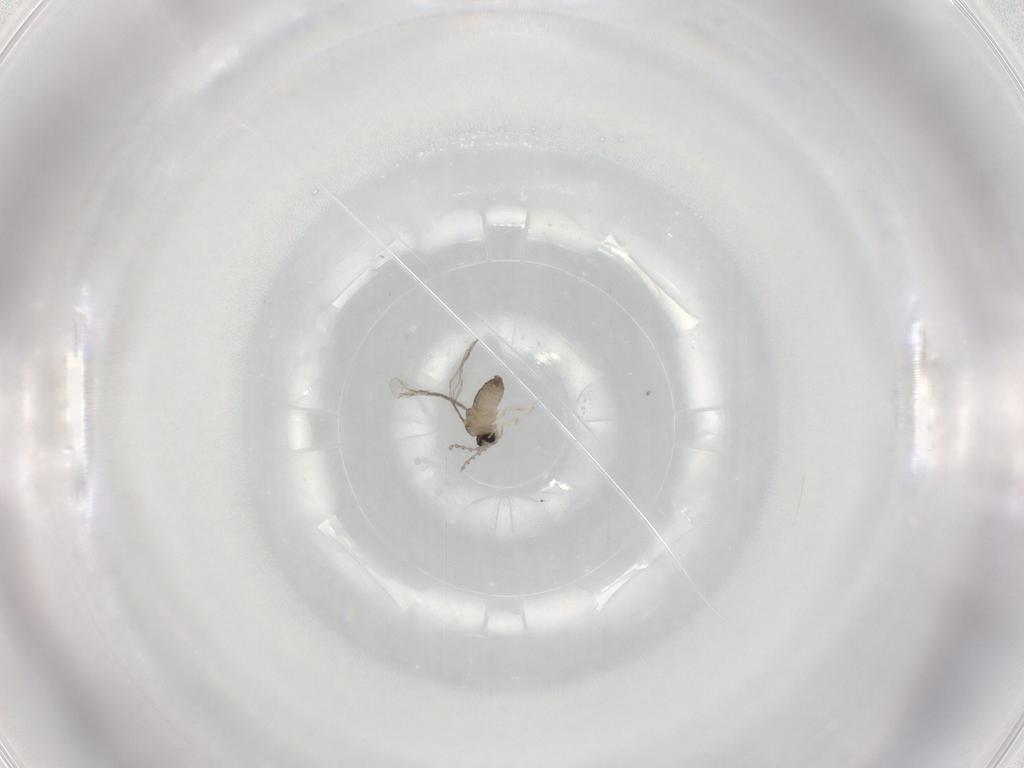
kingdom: Animalia
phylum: Arthropoda
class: Insecta
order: Diptera
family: Cecidomyiidae
